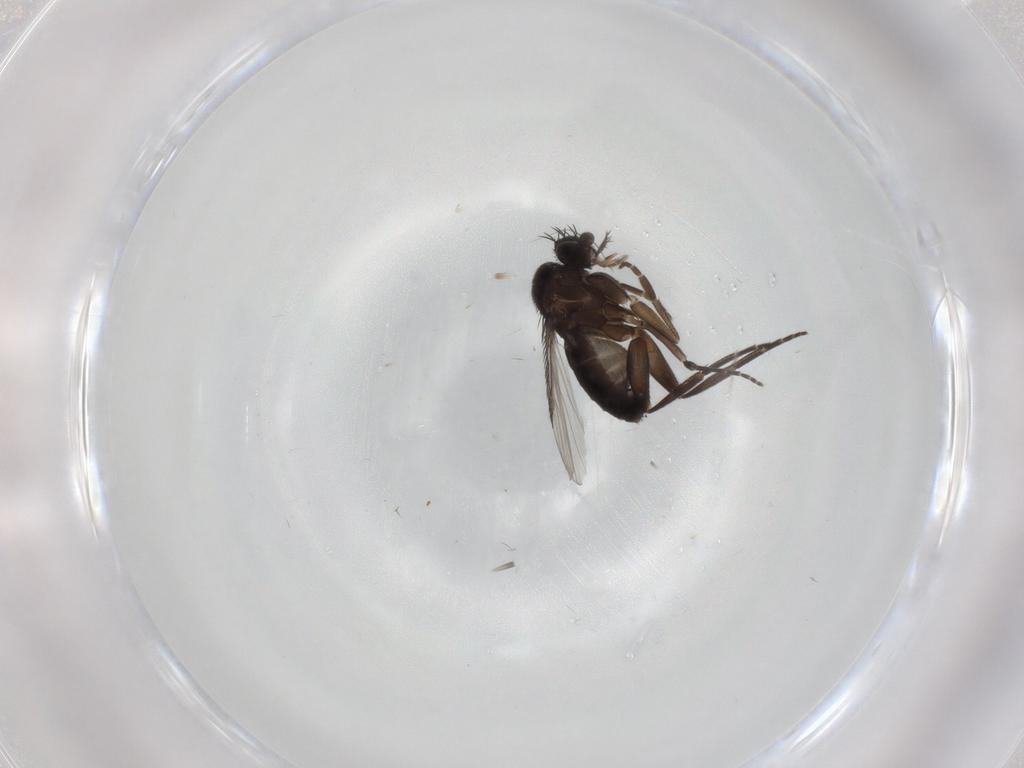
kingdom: Animalia
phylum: Arthropoda
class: Insecta
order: Diptera
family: Phoridae
